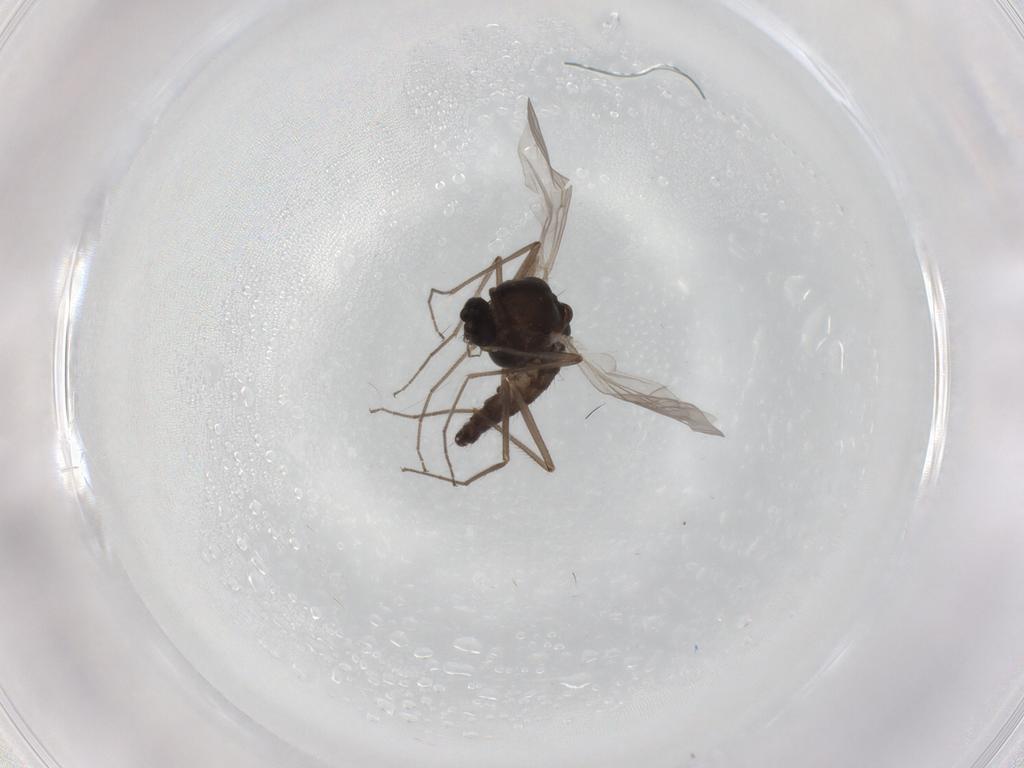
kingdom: Animalia
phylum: Arthropoda
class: Insecta
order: Diptera
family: Chironomidae
